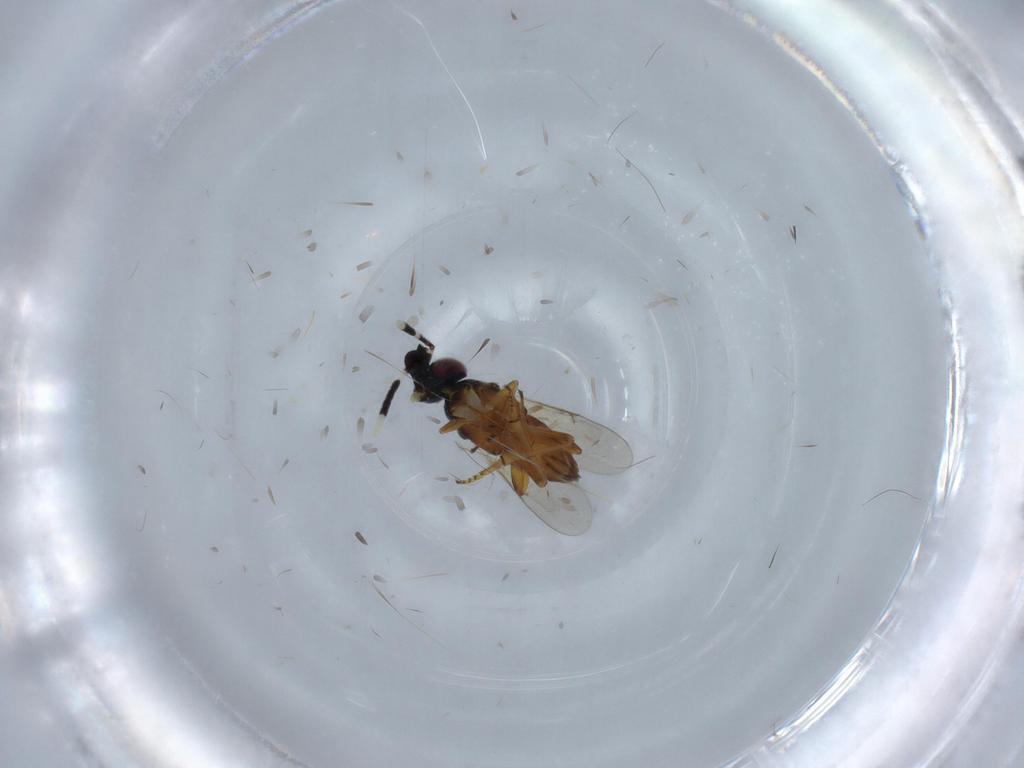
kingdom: Animalia
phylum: Arthropoda
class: Insecta
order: Hymenoptera
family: Encyrtidae
